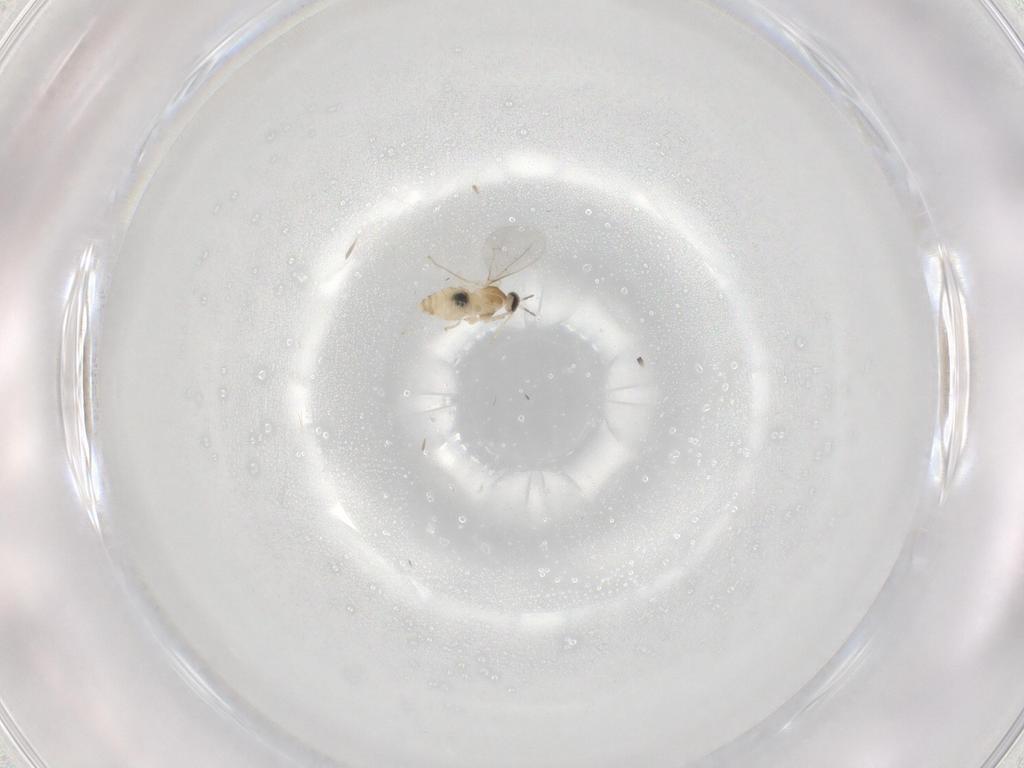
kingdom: Animalia
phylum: Arthropoda
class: Insecta
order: Diptera
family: Cecidomyiidae
